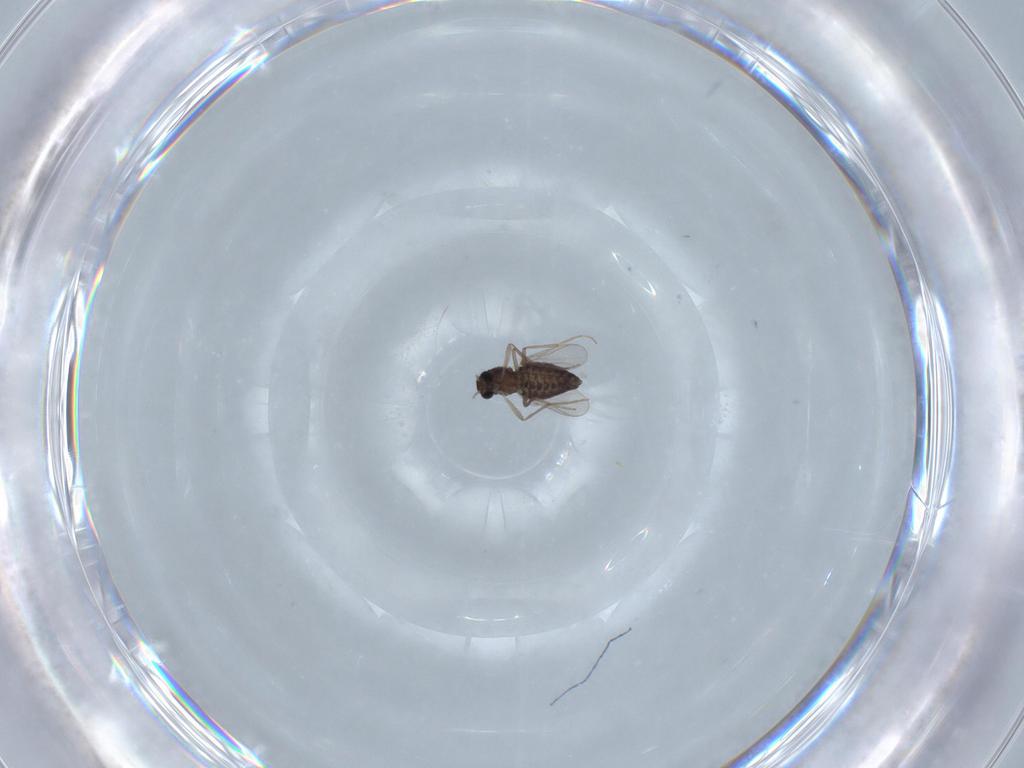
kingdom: Animalia
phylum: Arthropoda
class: Insecta
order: Diptera
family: Chironomidae
